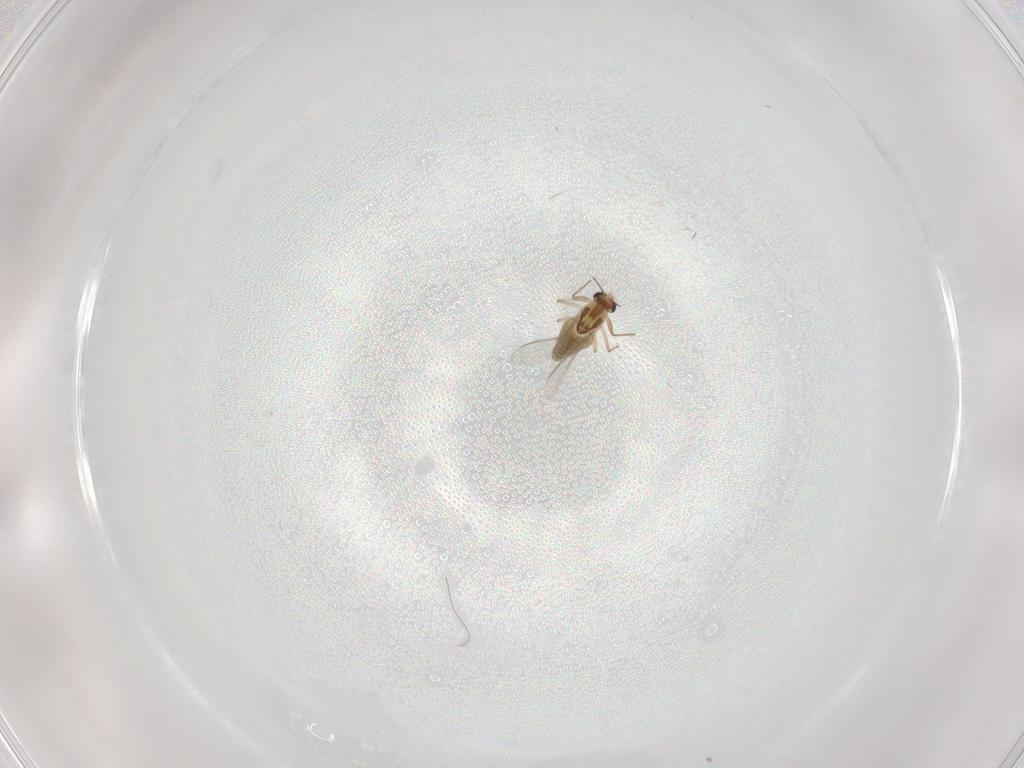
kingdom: Animalia
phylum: Arthropoda
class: Insecta
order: Diptera
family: Chironomidae
